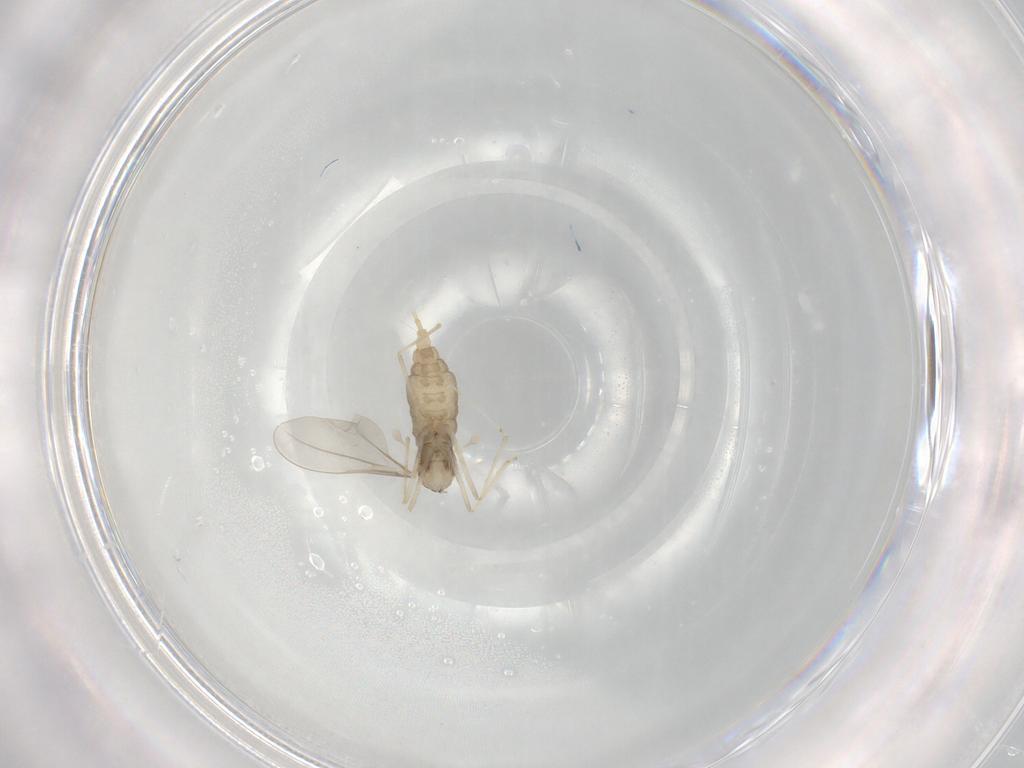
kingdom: Animalia
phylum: Arthropoda
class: Insecta
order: Diptera
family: Cecidomyiidae
